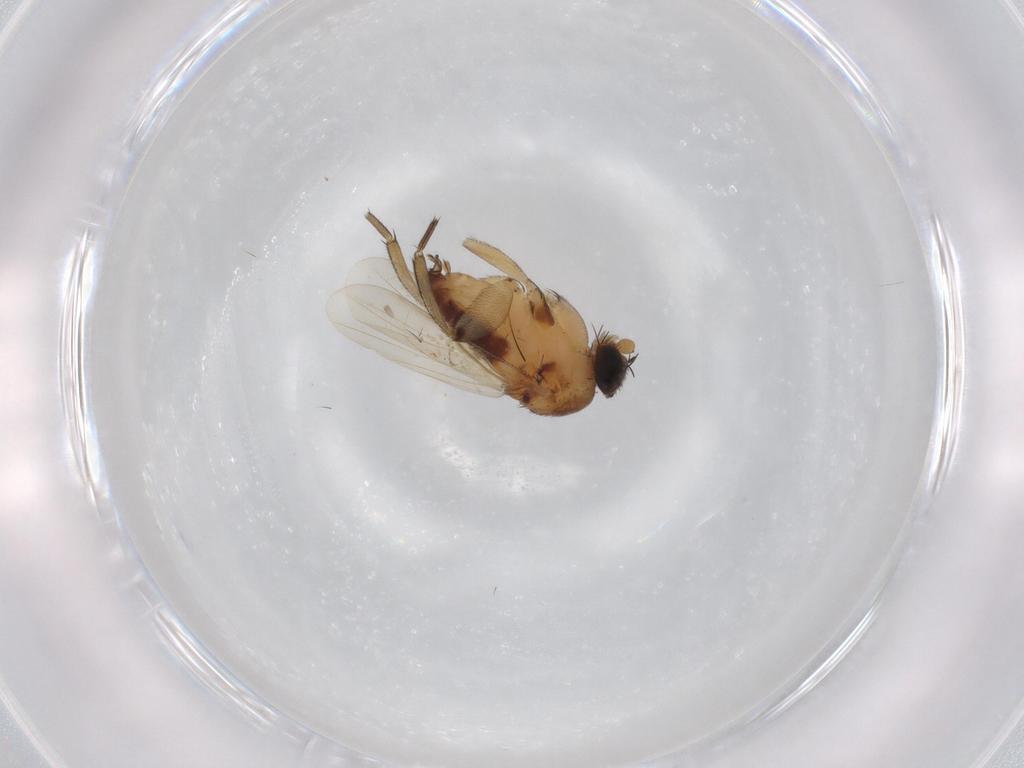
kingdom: Animalia
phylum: Arthropoda
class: Insecta
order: Diptera
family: Phoridae
